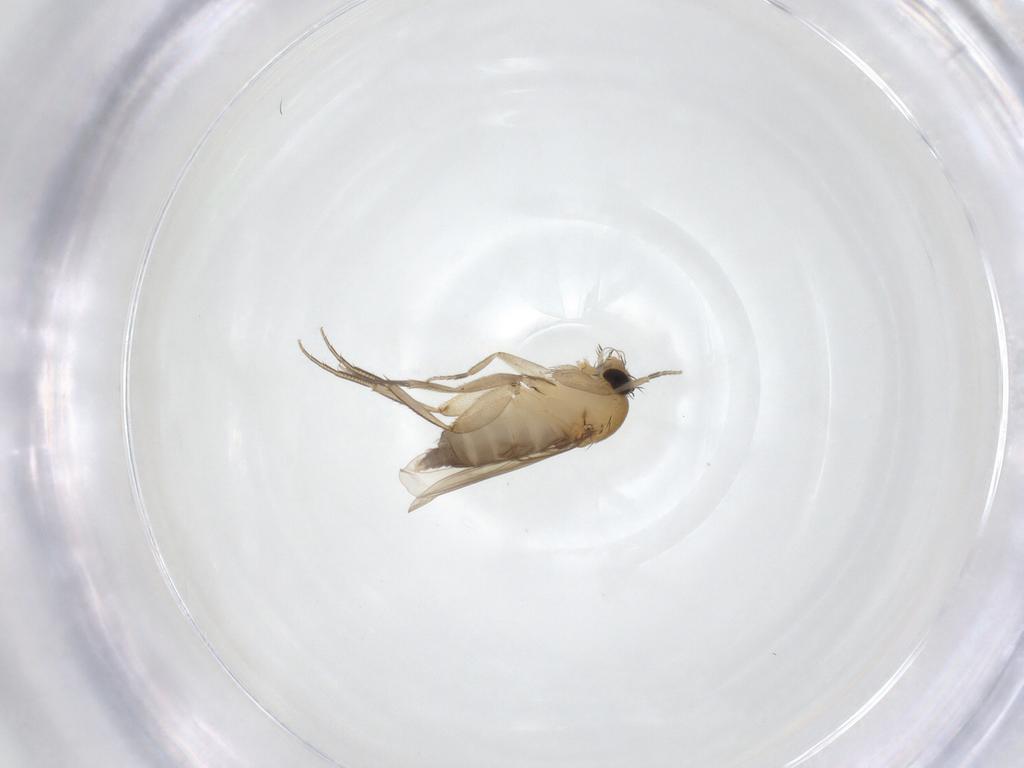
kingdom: Animalia
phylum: Arthropoda
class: Insecta
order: Diptera
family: Phoridae
